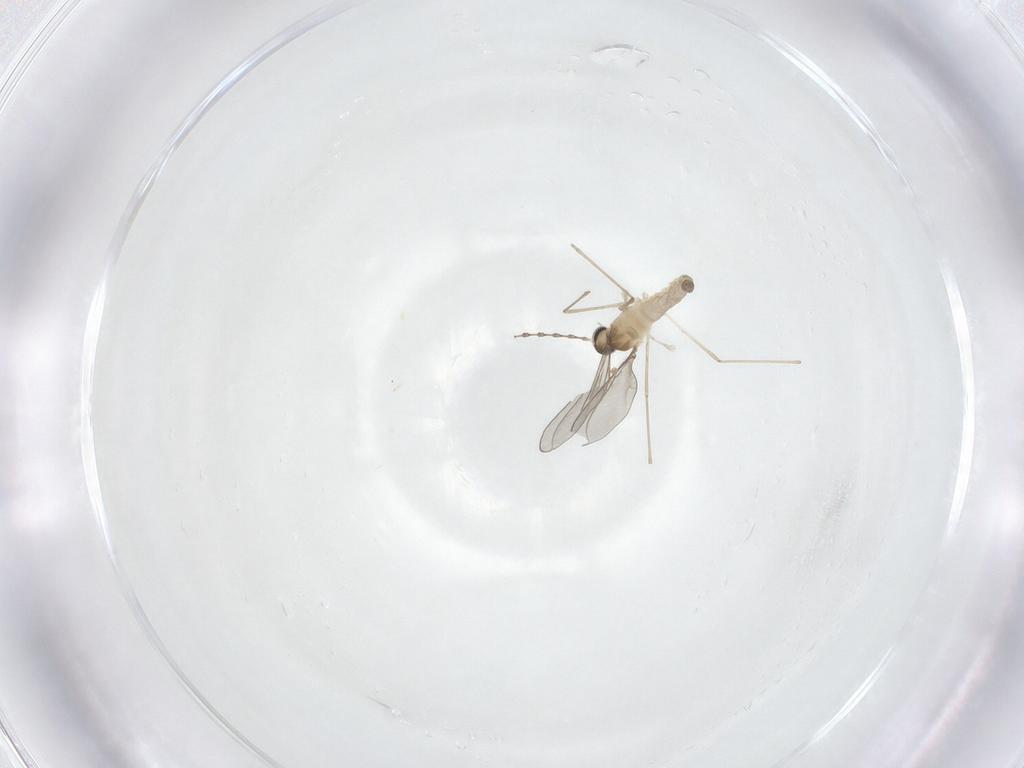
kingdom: Animalia
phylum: Arthropoda
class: Insecta
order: Diptera
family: Cecidomyiidae
